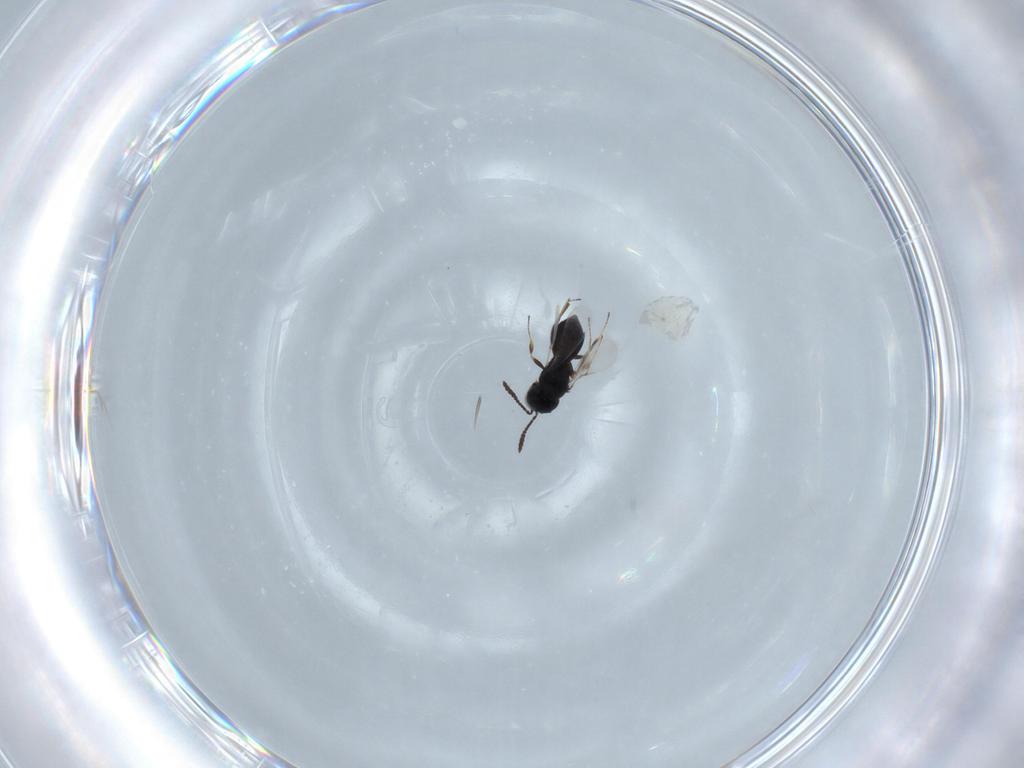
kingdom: Animalia
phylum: Arthropoda
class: Insecta
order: Hymenoptera
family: Scelionidae
